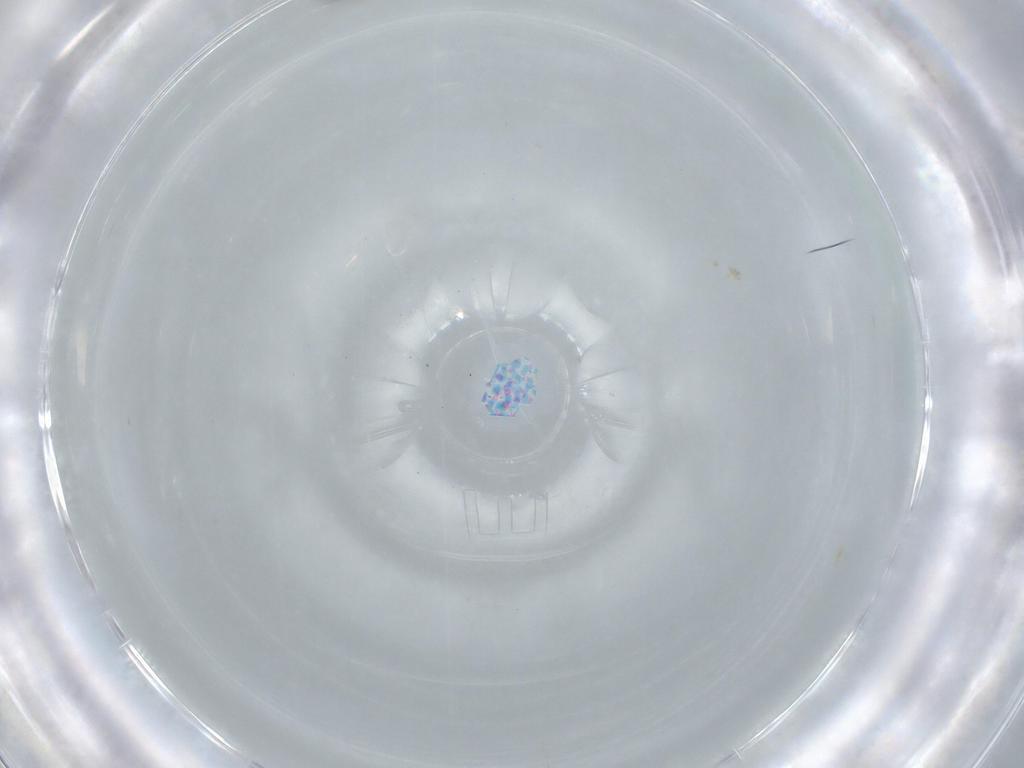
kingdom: Animalia
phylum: Arthropoda
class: Insecta
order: Diptera
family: Cecidomyiidae
